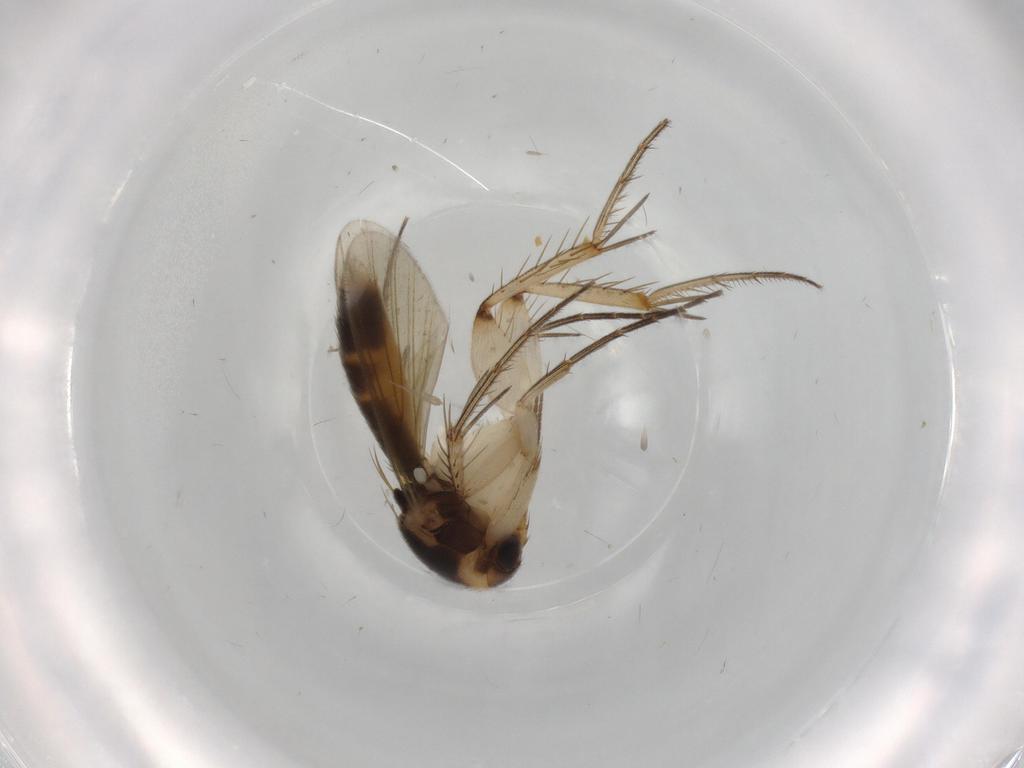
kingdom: Animalia
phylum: Arthropoda
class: Insecta
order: Diptera
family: Mycetophilidae
